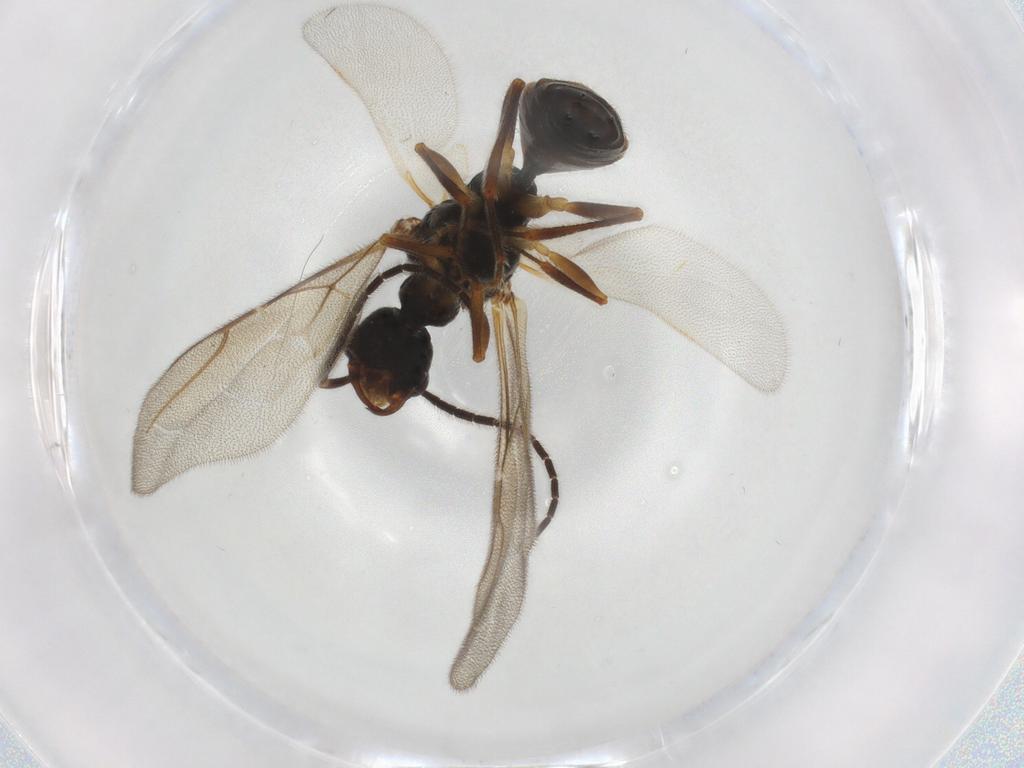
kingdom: Animalia
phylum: Arthropoda
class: Insecta
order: Hymenoptera
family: Bethylidae
